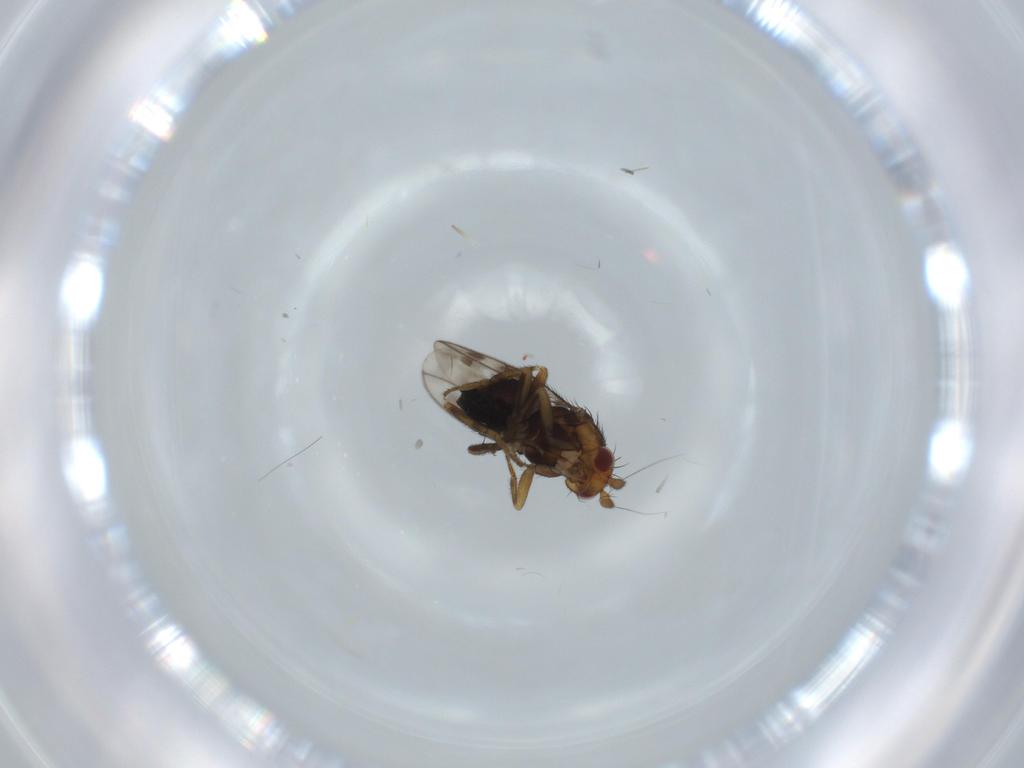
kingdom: Animalia
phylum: Arthropoda
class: Insecta
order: Diptera
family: Sphaeroceridae
